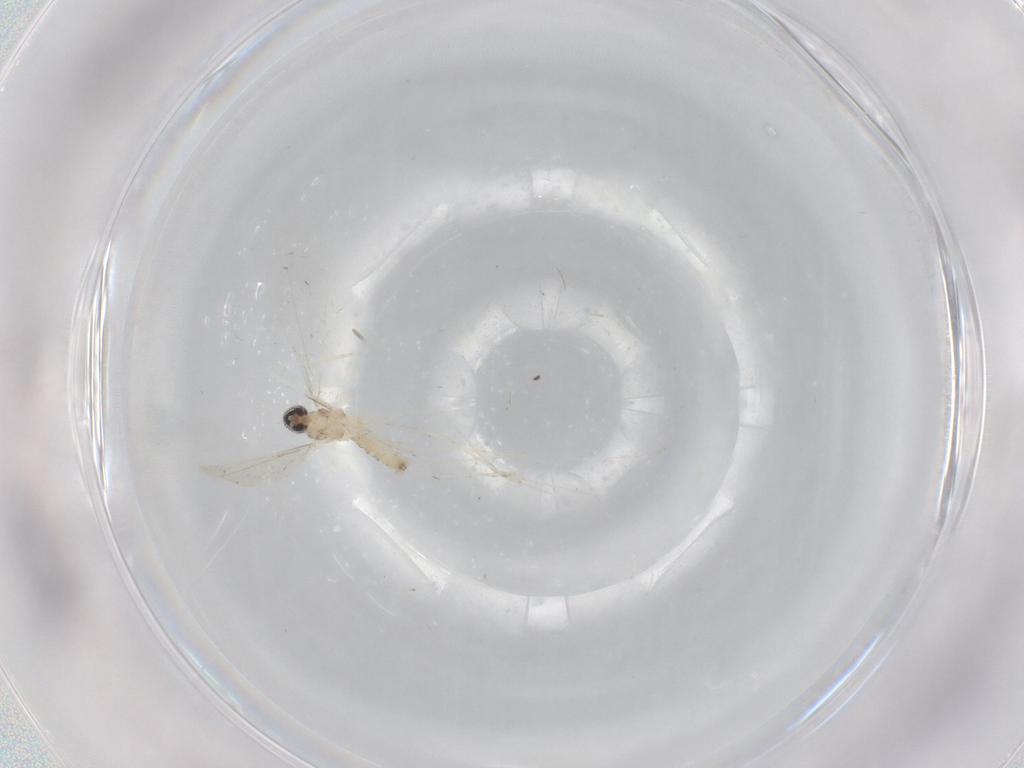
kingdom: Animalia
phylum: Arthropoda
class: Insecta
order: Diptera
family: Cecidomyiidae
